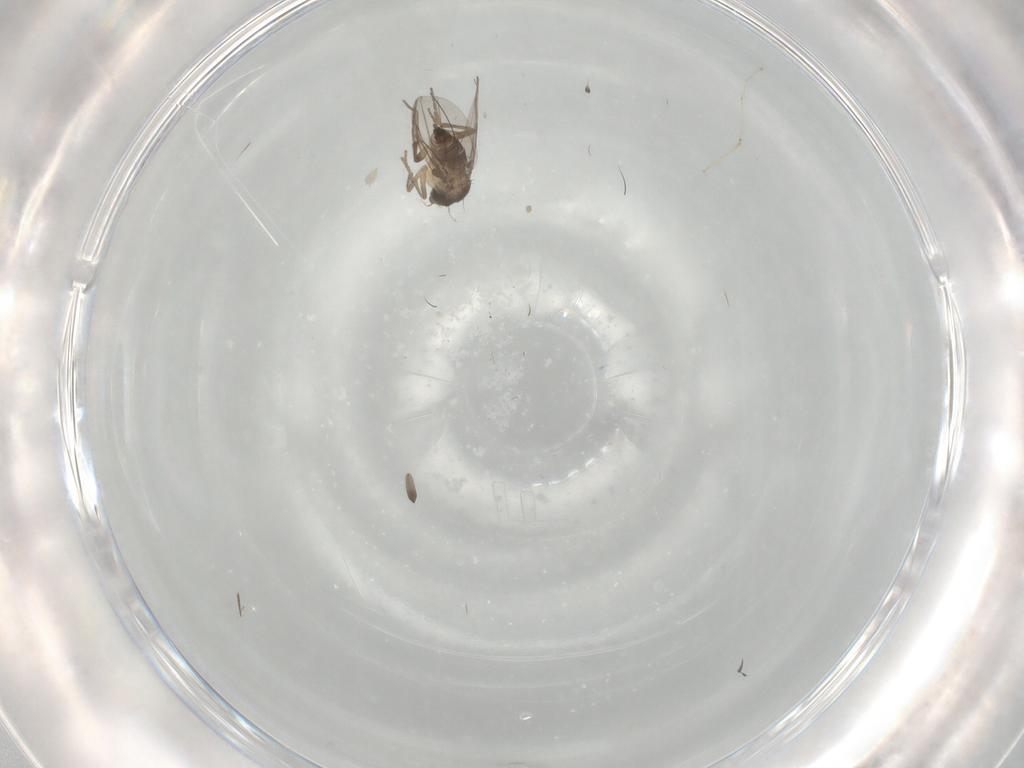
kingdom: Animalia
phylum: Arthropoda
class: Insecta
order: Diptera
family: Phoridae
